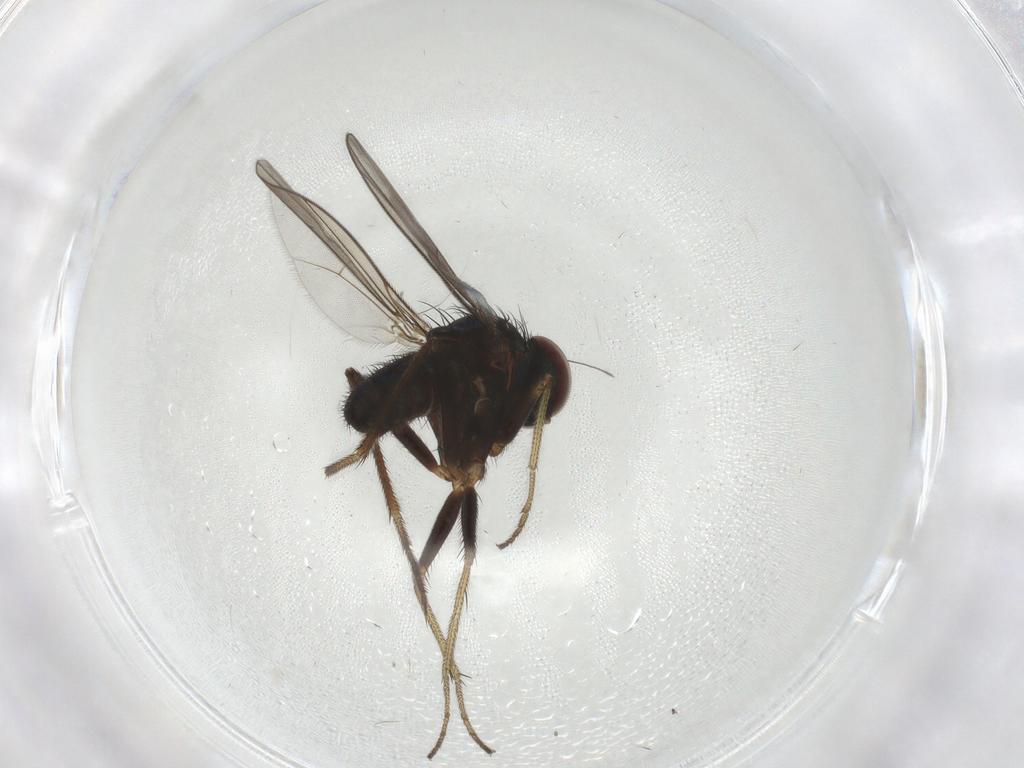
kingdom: Animalia
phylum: Arthropoda
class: Insecta
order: Diptera
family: Dolichopodidae
